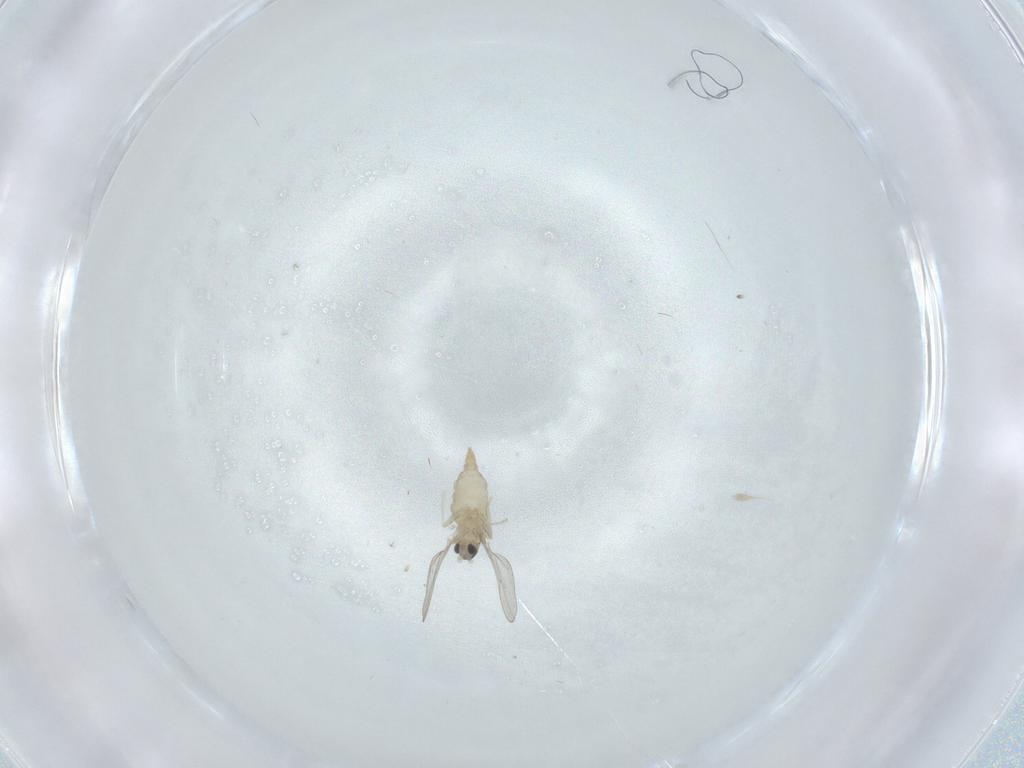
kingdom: Animalia
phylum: Arthropoda
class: Insecta
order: Diptera
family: Cecidomyiidae
